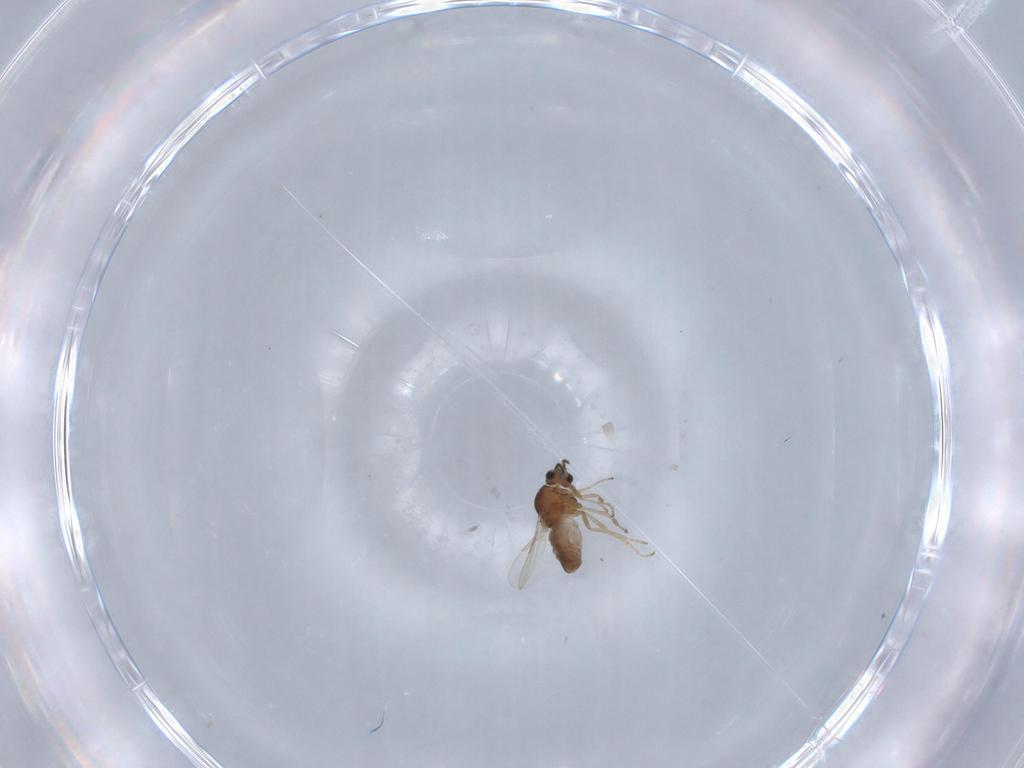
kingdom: Animalia
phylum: Arthropoda
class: Insecta
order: Diptera
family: Ceratopogonidae
